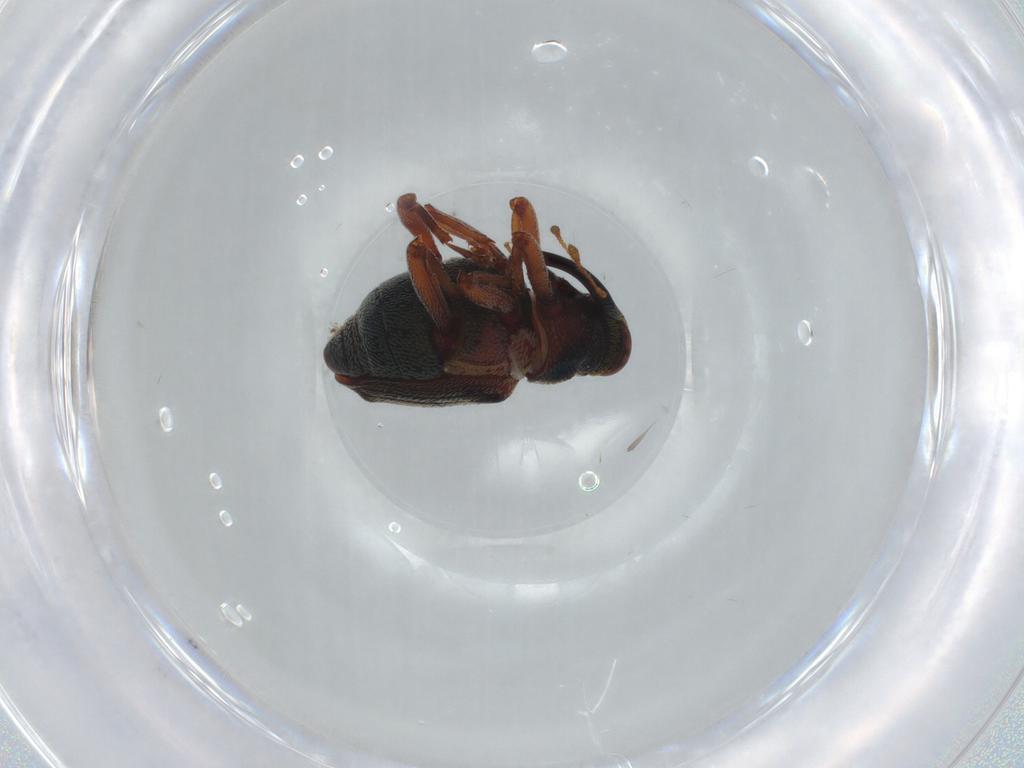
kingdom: Animalia
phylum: Arthropoda
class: Insecta
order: Coleoptera
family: Curculionidae
